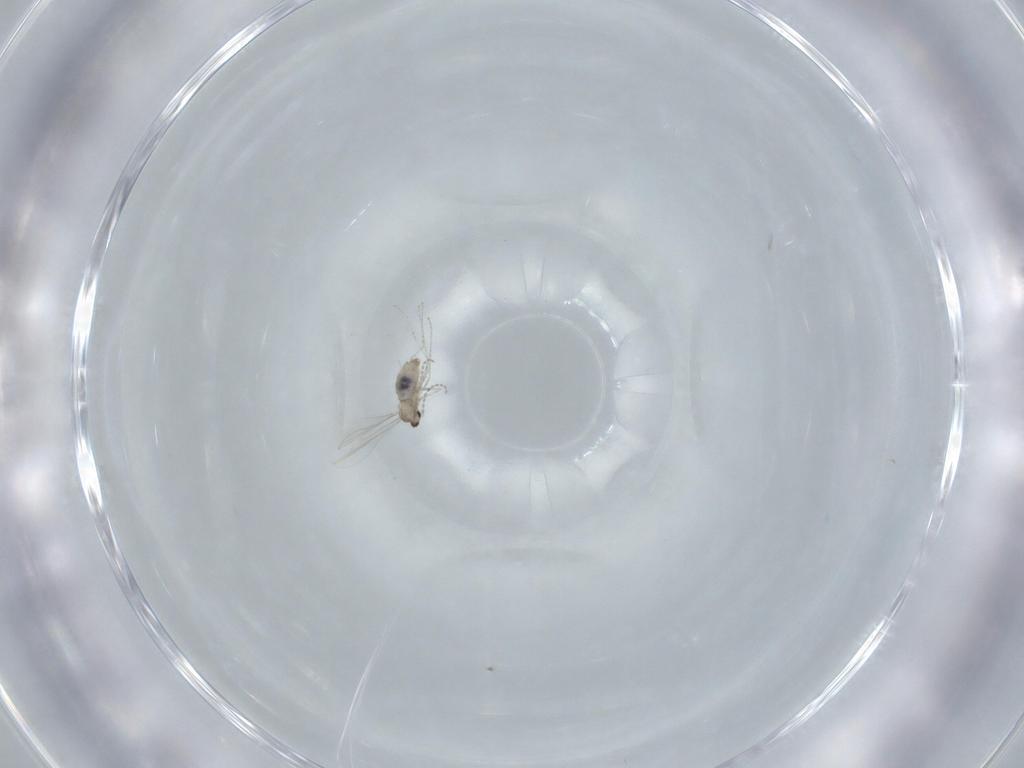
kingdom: Animalia
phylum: Arthropoda
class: Insecta
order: Diptera
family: Cecidomyiidae
